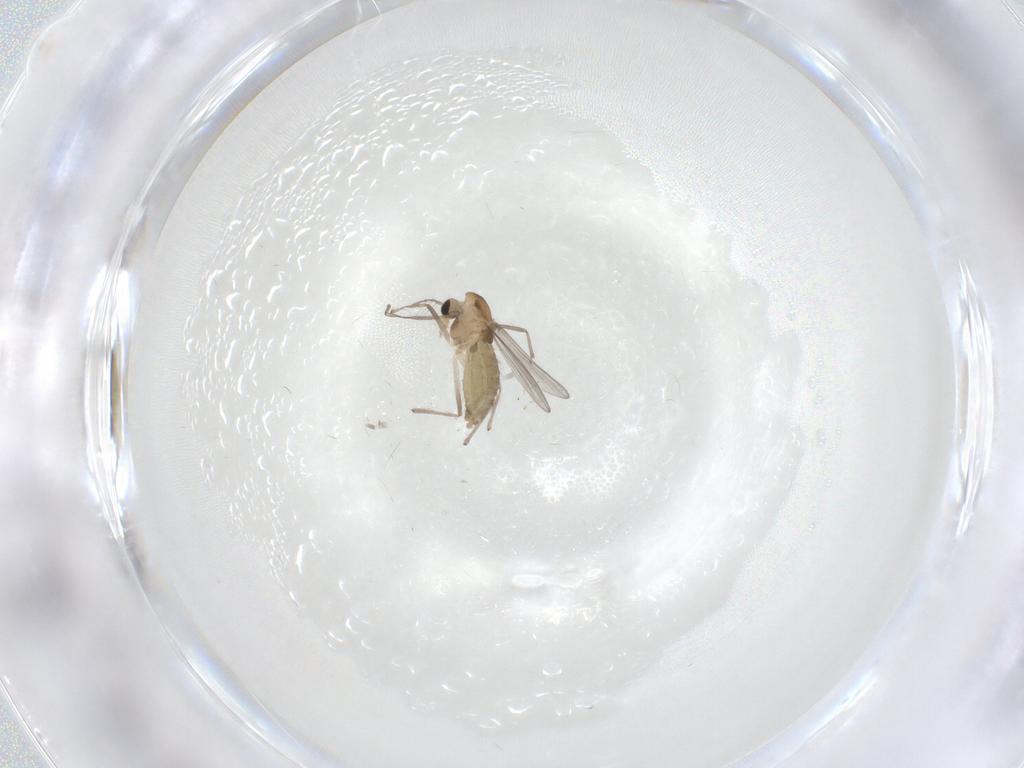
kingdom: Animalia
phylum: Arthropoda
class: Insecta
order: Diptera
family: Chironomidae
